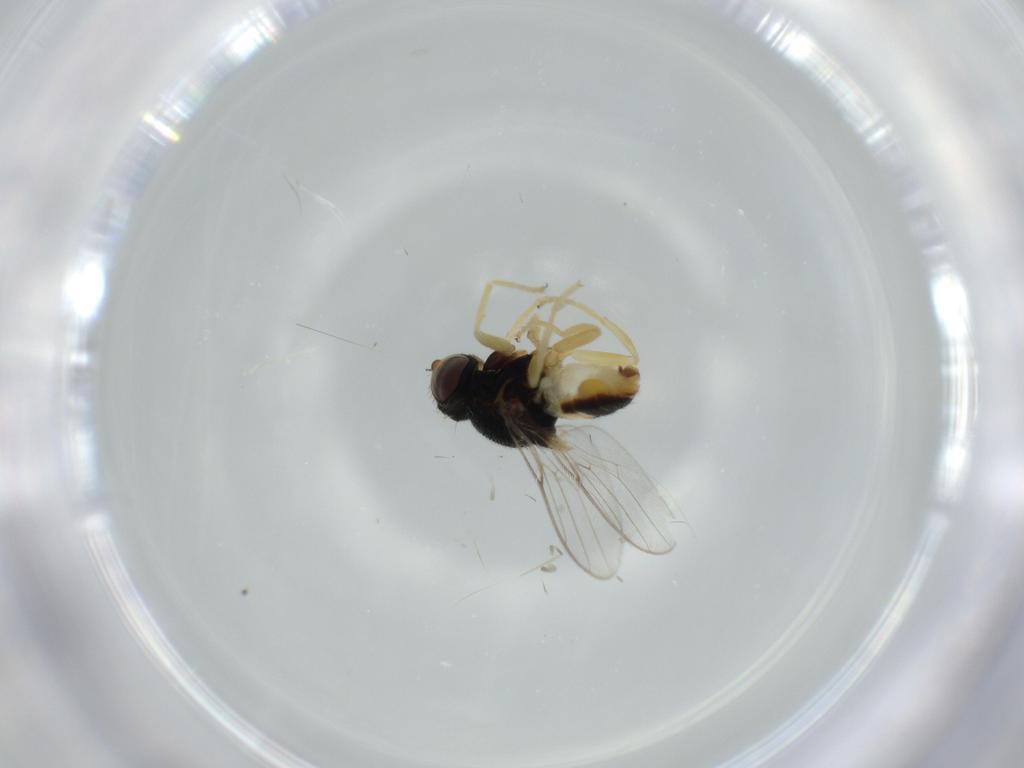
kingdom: Animalia
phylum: Arthropoda
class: Insecta
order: Diptera
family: Chloropidae
